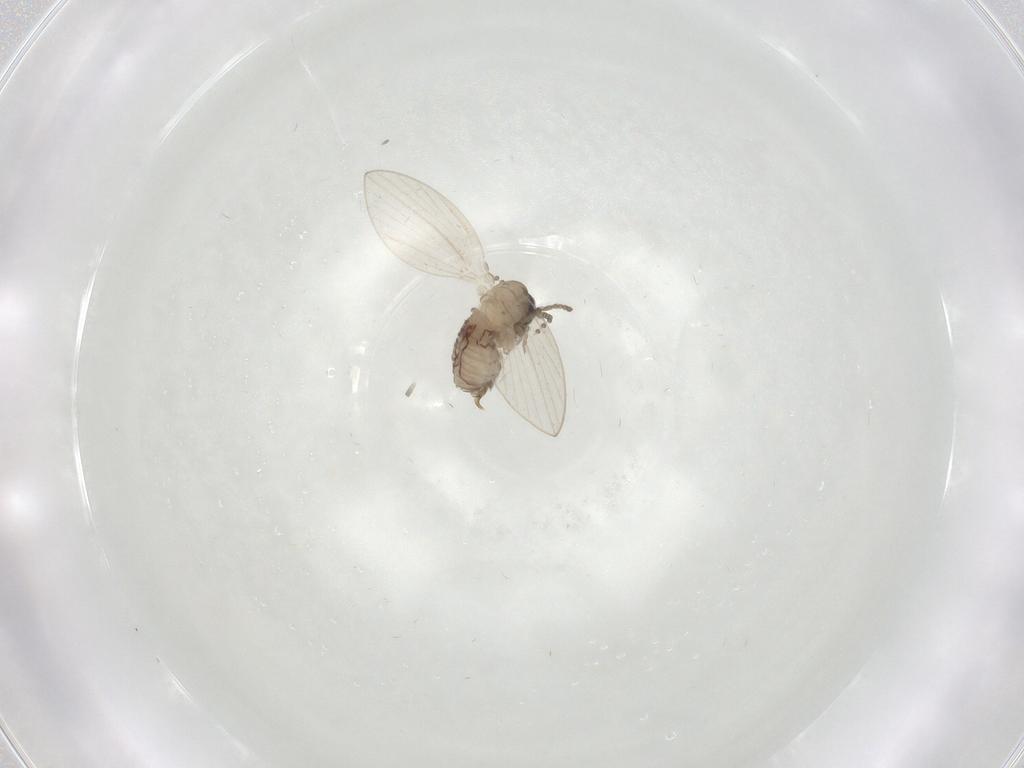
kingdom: Animalia
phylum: Arthropoda
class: Insecta
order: Diptera
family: Psychodidae
